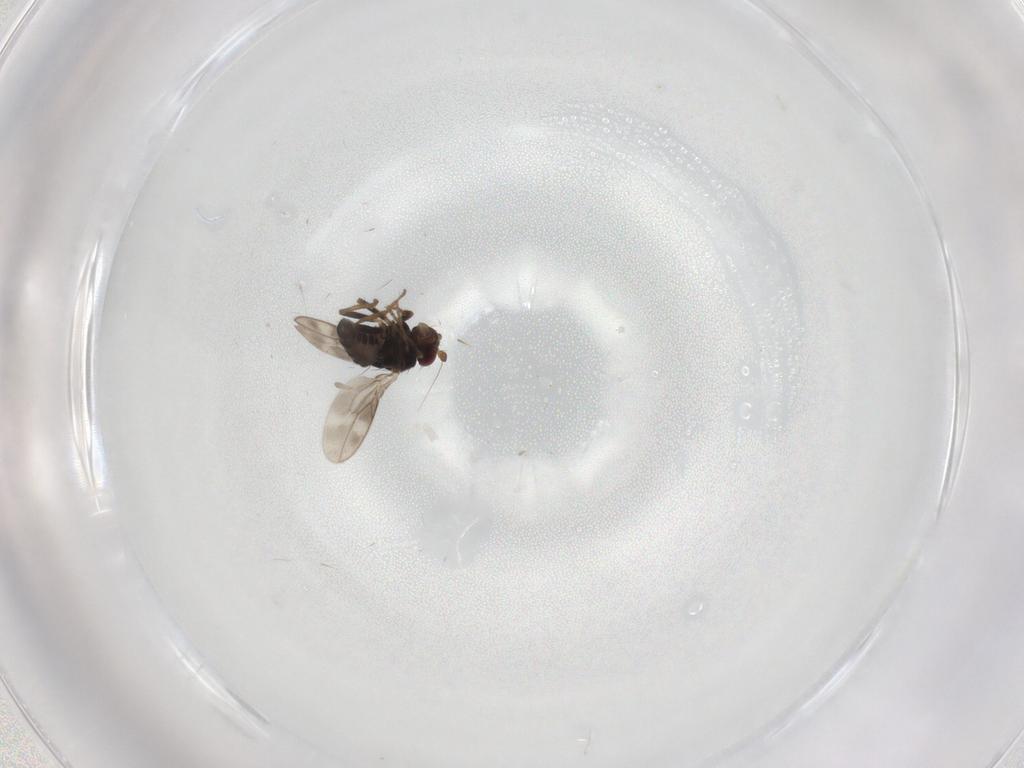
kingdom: Animalia
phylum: Arthropoda
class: Insecta
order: Diptera
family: Sphaeroceridae
